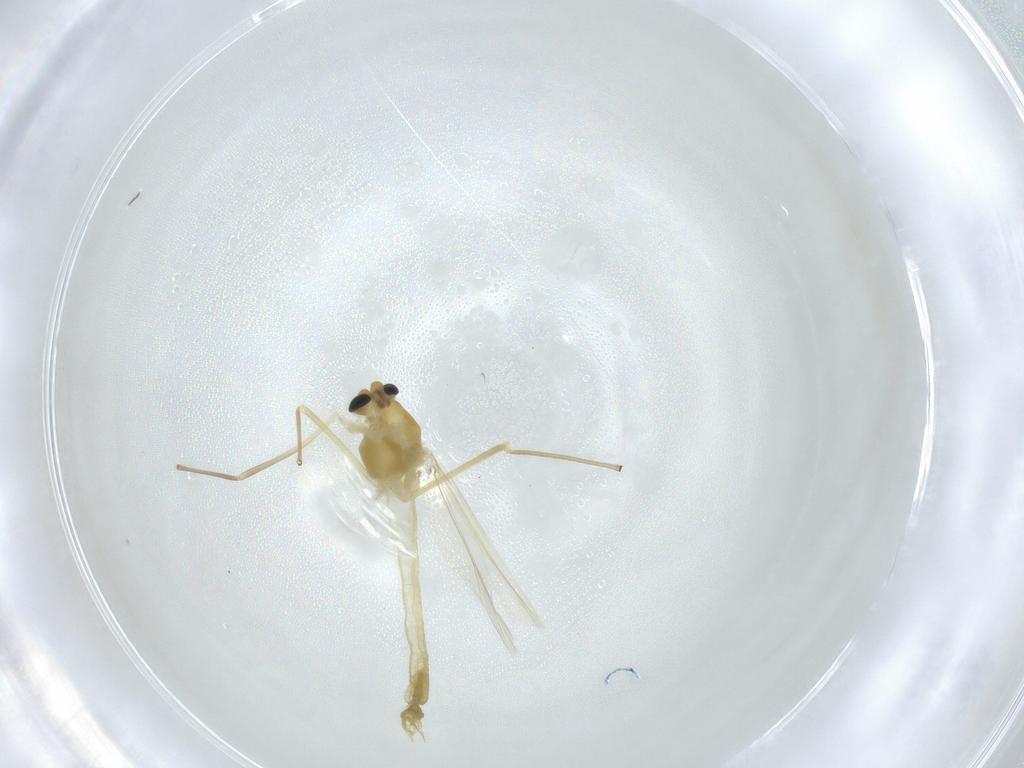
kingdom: Animalia
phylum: Arthropoda
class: Insecta
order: Diptera
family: Chironomidae
